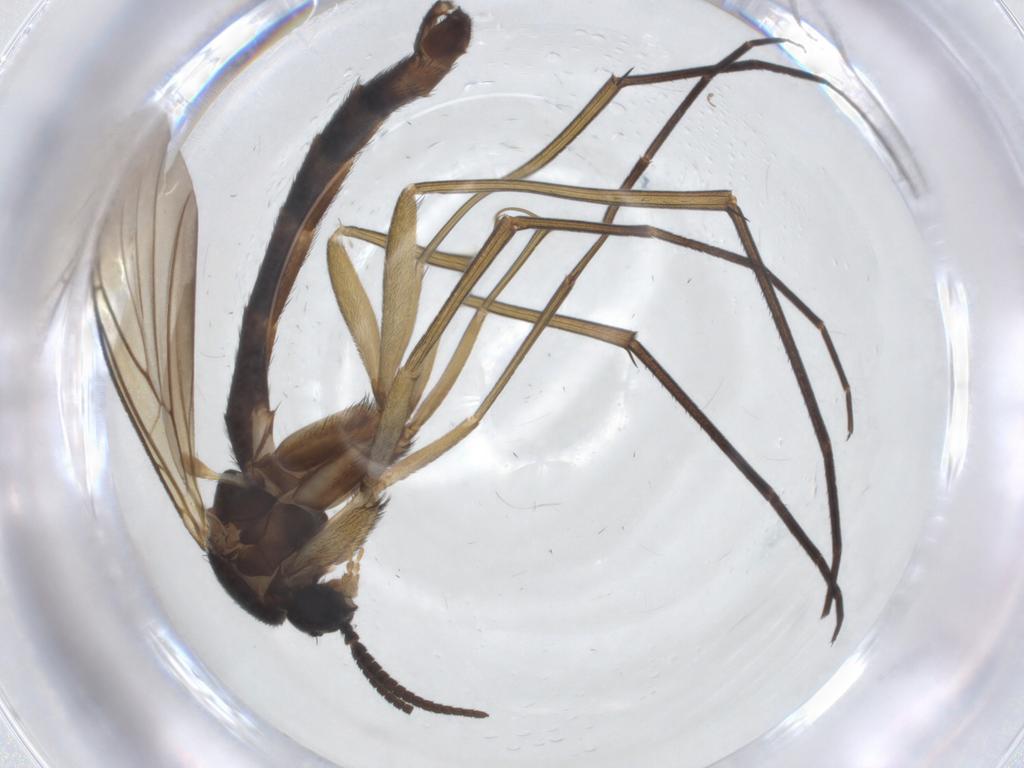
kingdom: Animalia
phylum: Arthropoda
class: Insecta
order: Diptera
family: Keroplatidae
